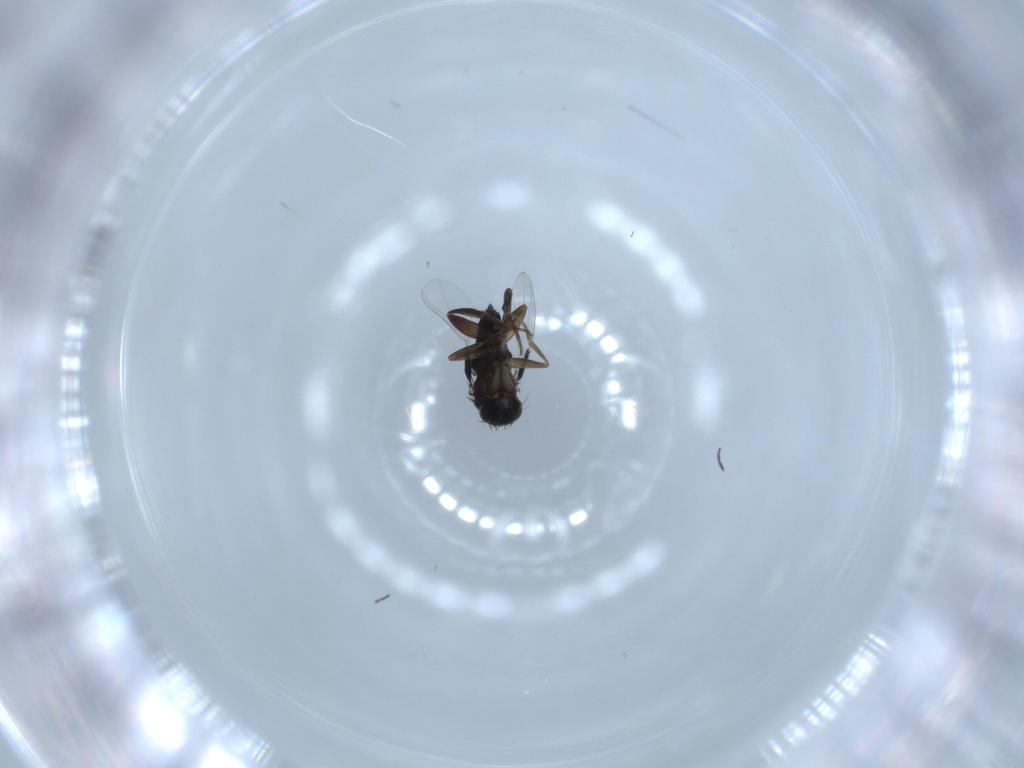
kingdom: Animalia
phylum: Arthropoda
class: Insecta
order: Diptera
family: Phoridae
